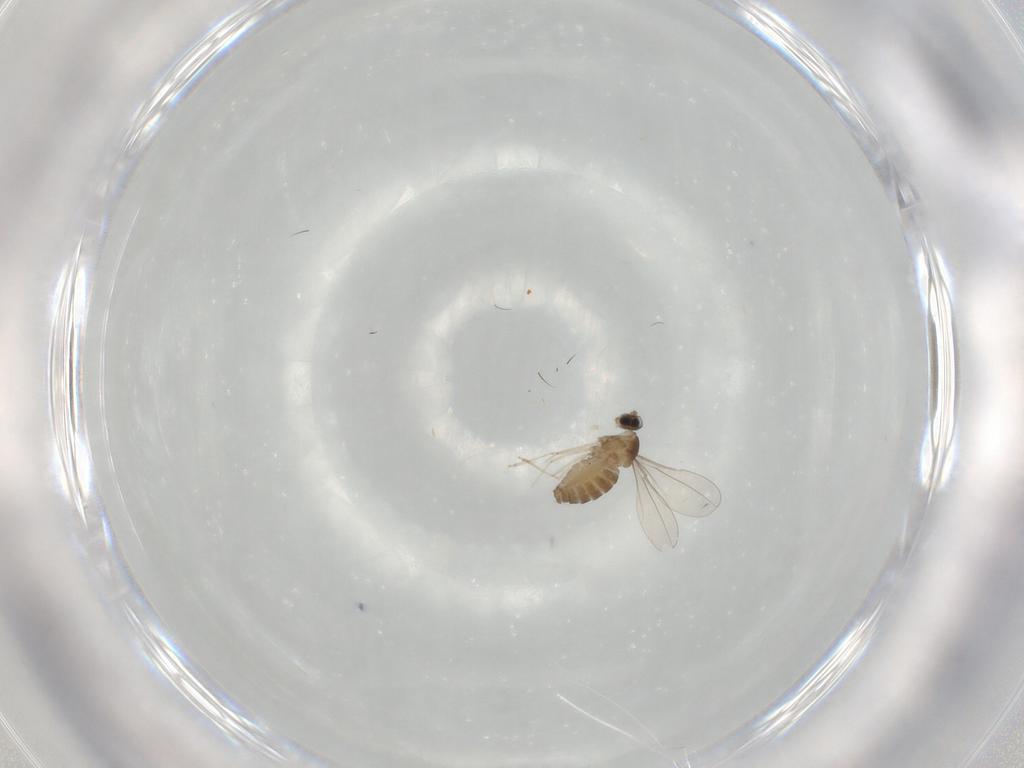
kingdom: Animalia
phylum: Arthropoda
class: Insecta
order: Diptera
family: Cecidomyiidae
